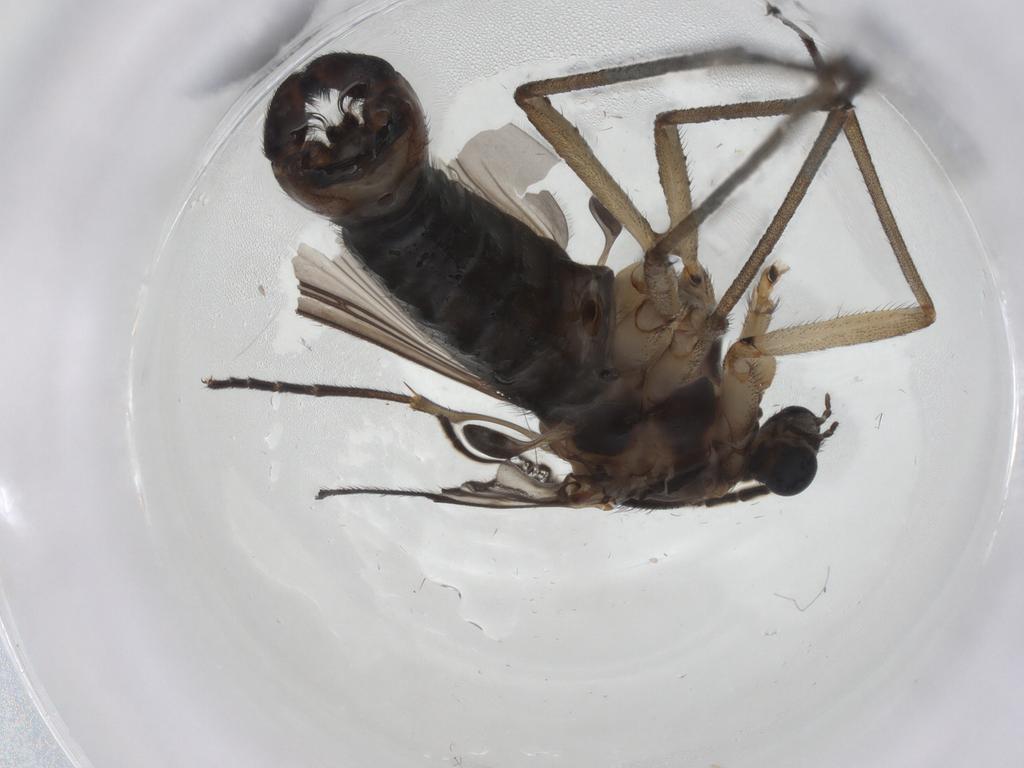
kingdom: Animalia
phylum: Arthropoda
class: Insecta
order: Diptera
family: Sciaridae
